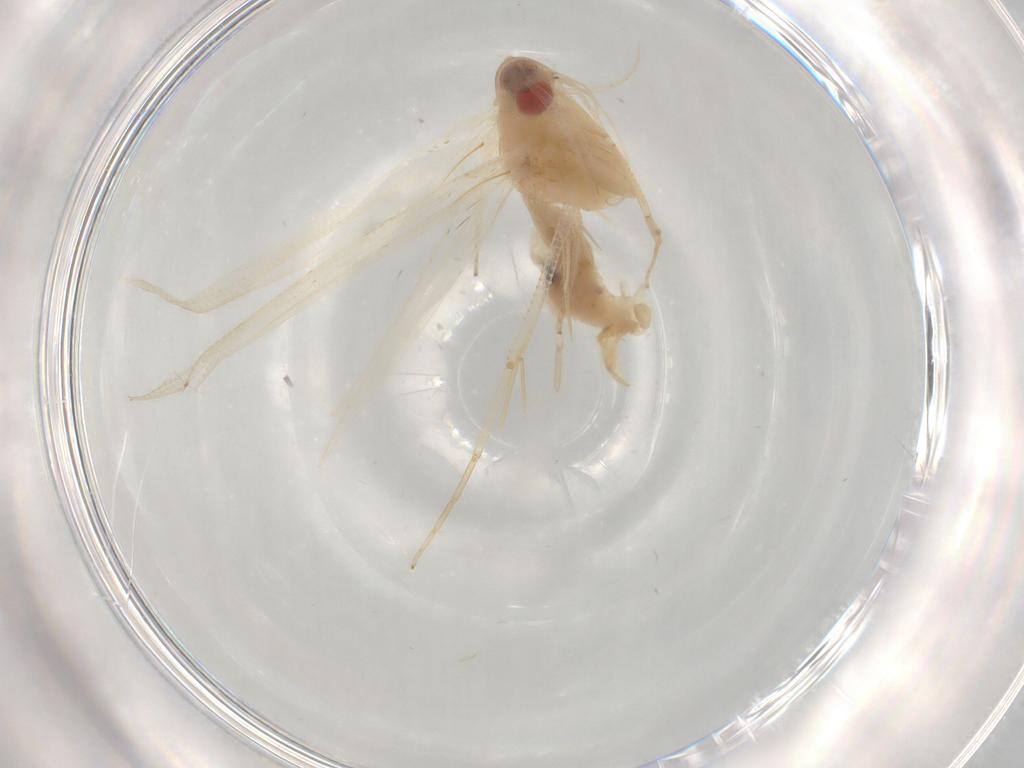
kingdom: Animalia
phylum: Arthropoda
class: Insecta
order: Lepidoptera
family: Cosmopterigidae
